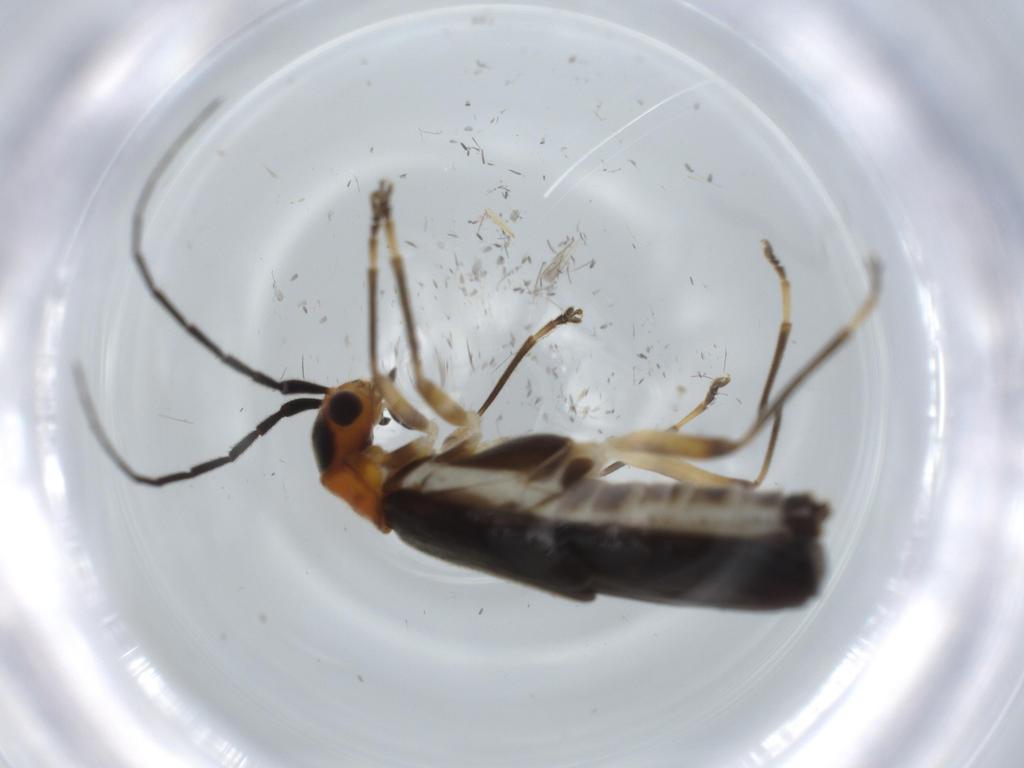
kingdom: Animalia
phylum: Arthropoda
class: Insecta
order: Coleoptera
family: Cantharidae
